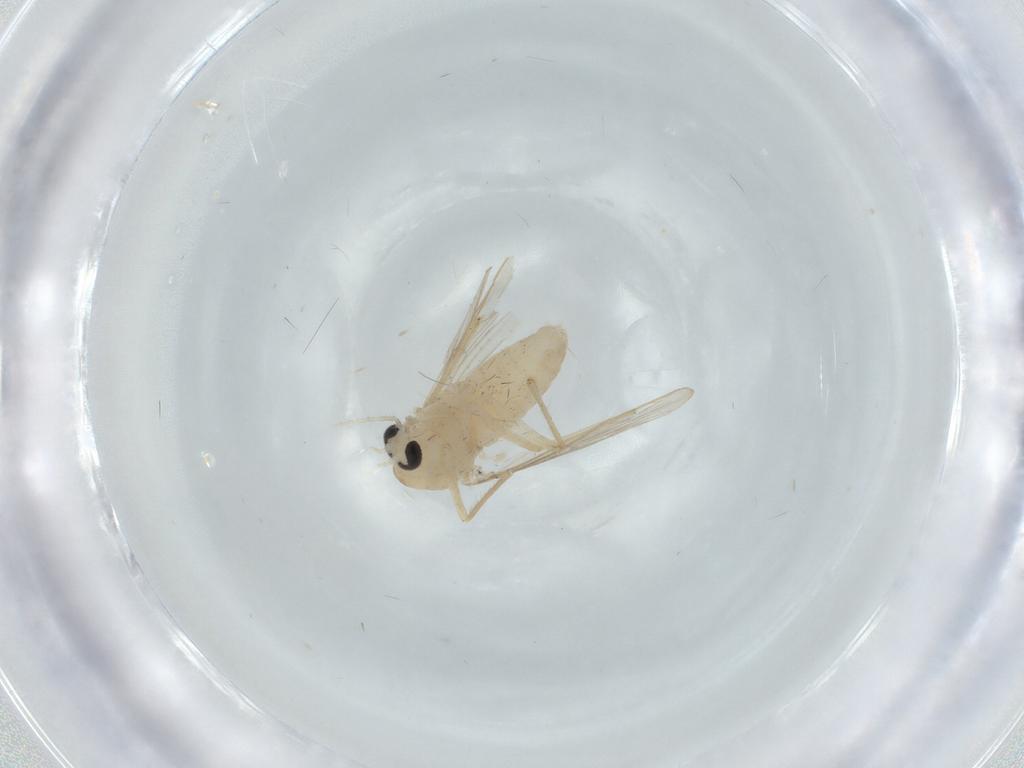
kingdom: Animalia
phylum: Arthropoda
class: Insecta
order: Diptera
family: Chironomidae
